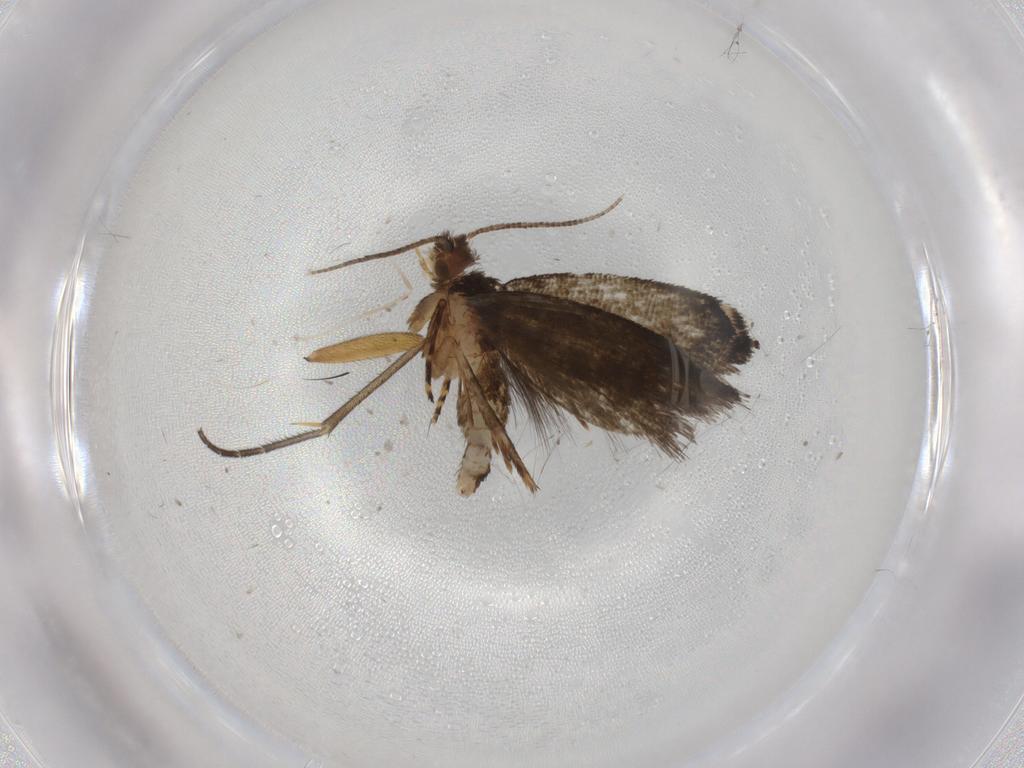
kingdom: Animalia
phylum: Arthropoda
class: Insecta
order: Lepidoptera
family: Tineidae
